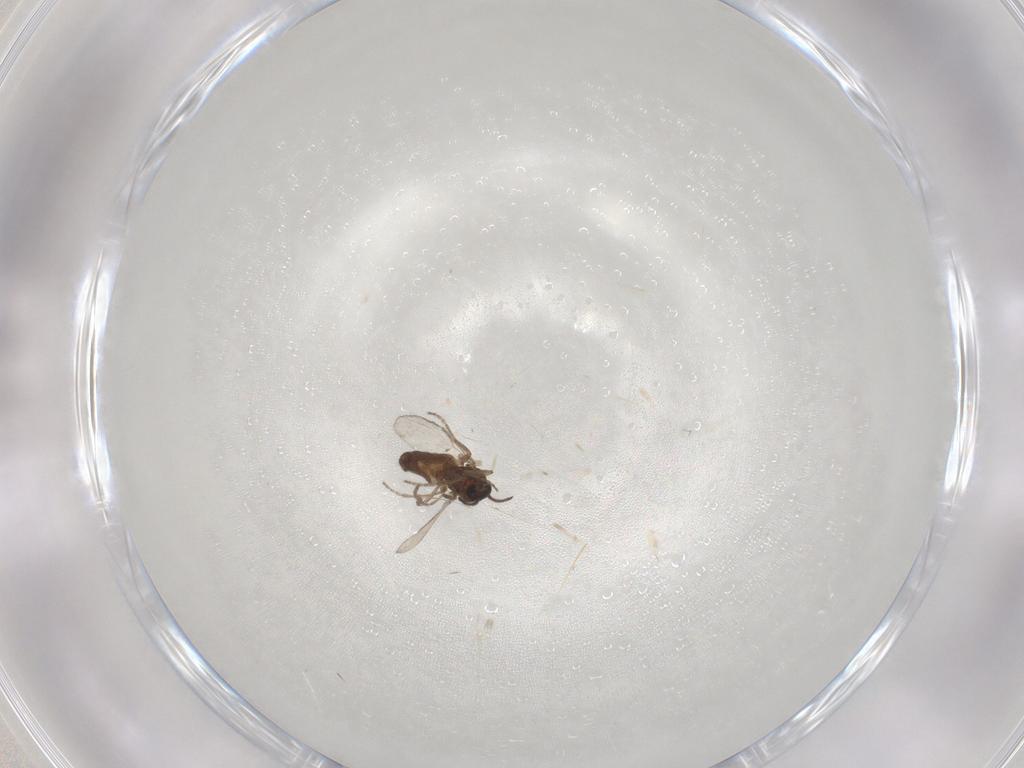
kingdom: Animalia
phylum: Arthropoda
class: Insecta
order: Diptera
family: Ceratopogonidae
